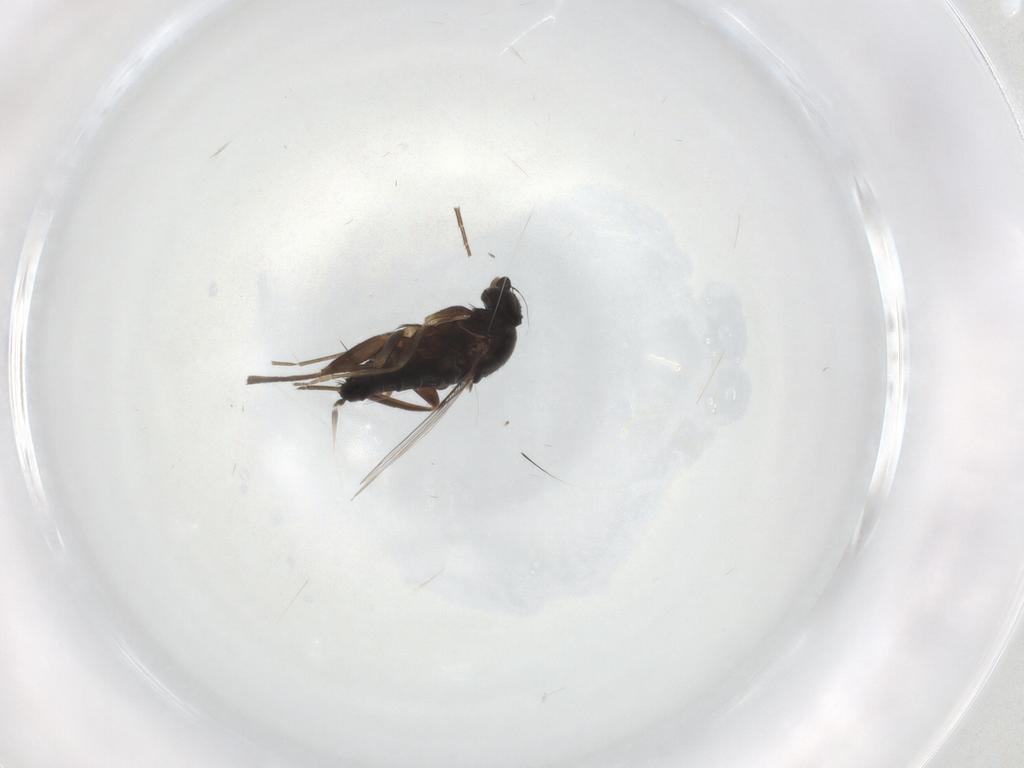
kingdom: Animalia
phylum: Arthropoda
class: Insecta
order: Diptera
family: Phoridae
